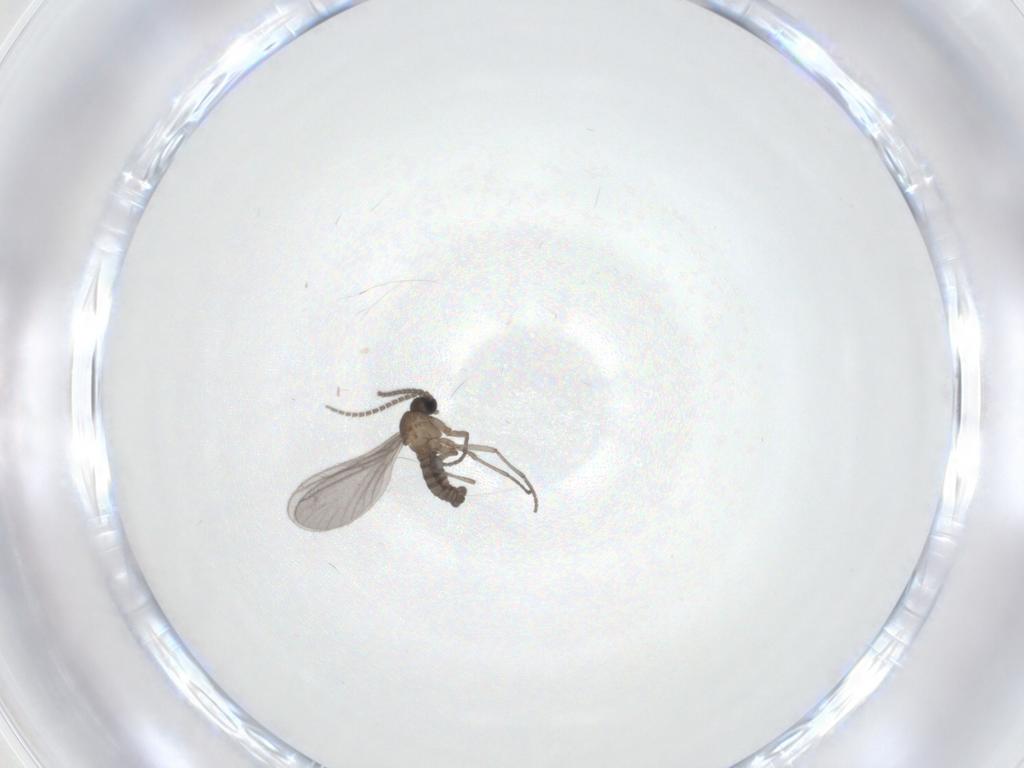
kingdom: Animalia
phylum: Arthropoda
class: Insecta
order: Diptera
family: Sciaridae
